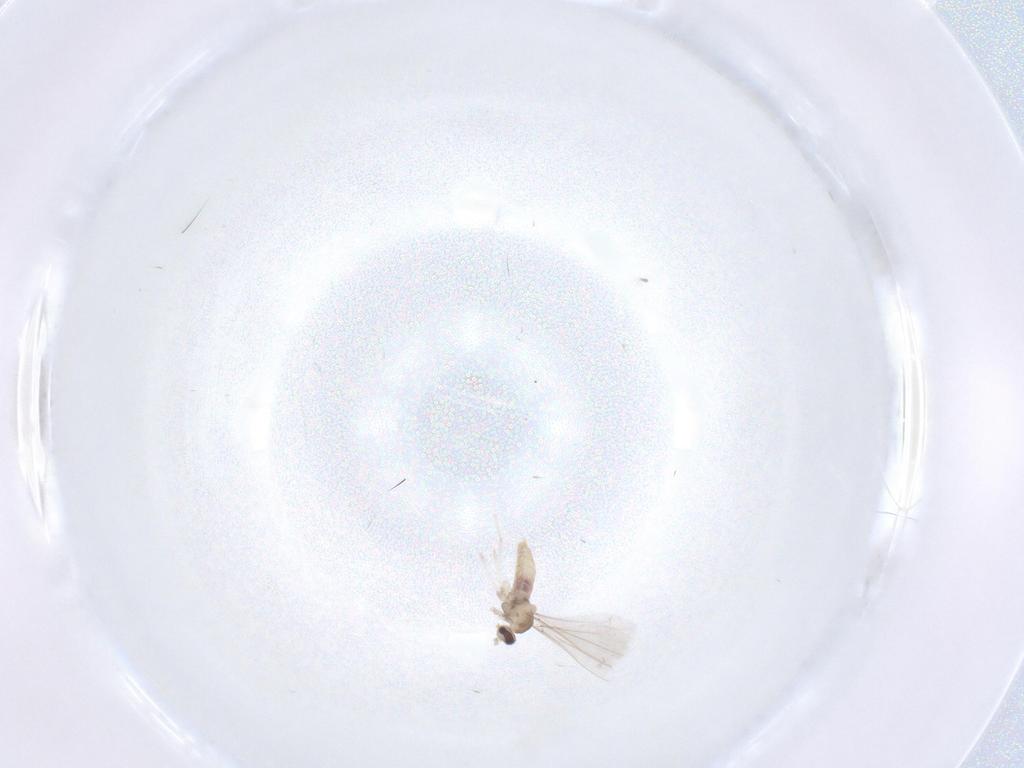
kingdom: Animalia
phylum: Arthropoda
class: Insecta
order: Diptera
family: Cecidomyiidae
